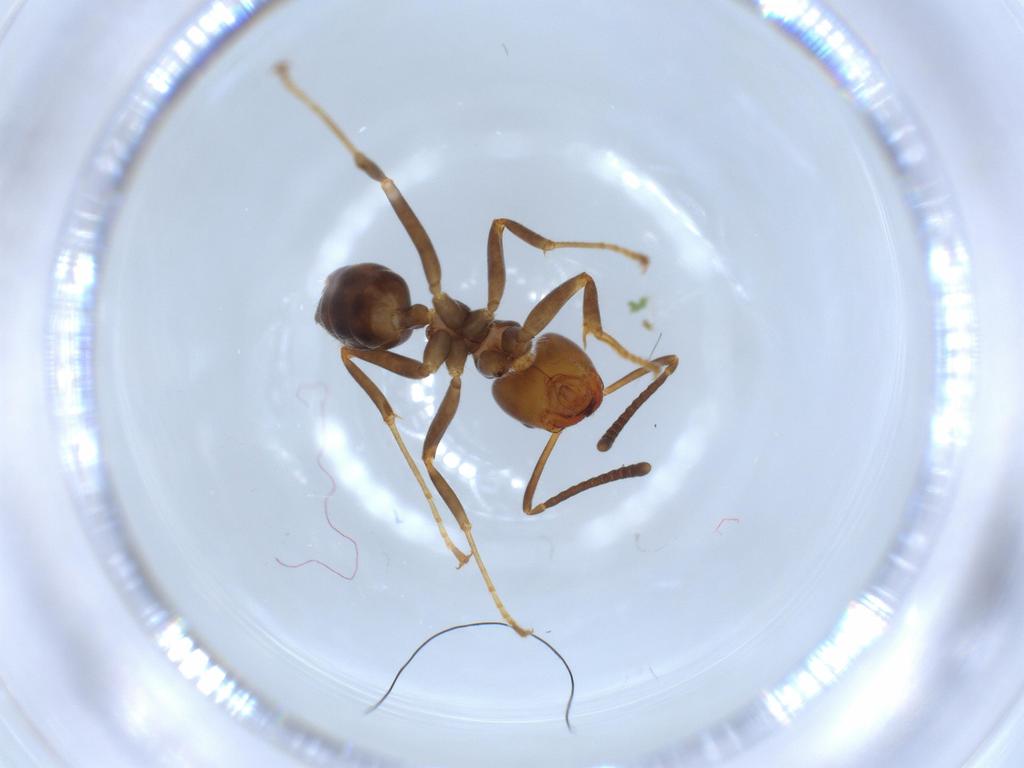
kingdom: Animalia
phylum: Arthropoda
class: Insecta
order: Hymenoptera
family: Formicidae
